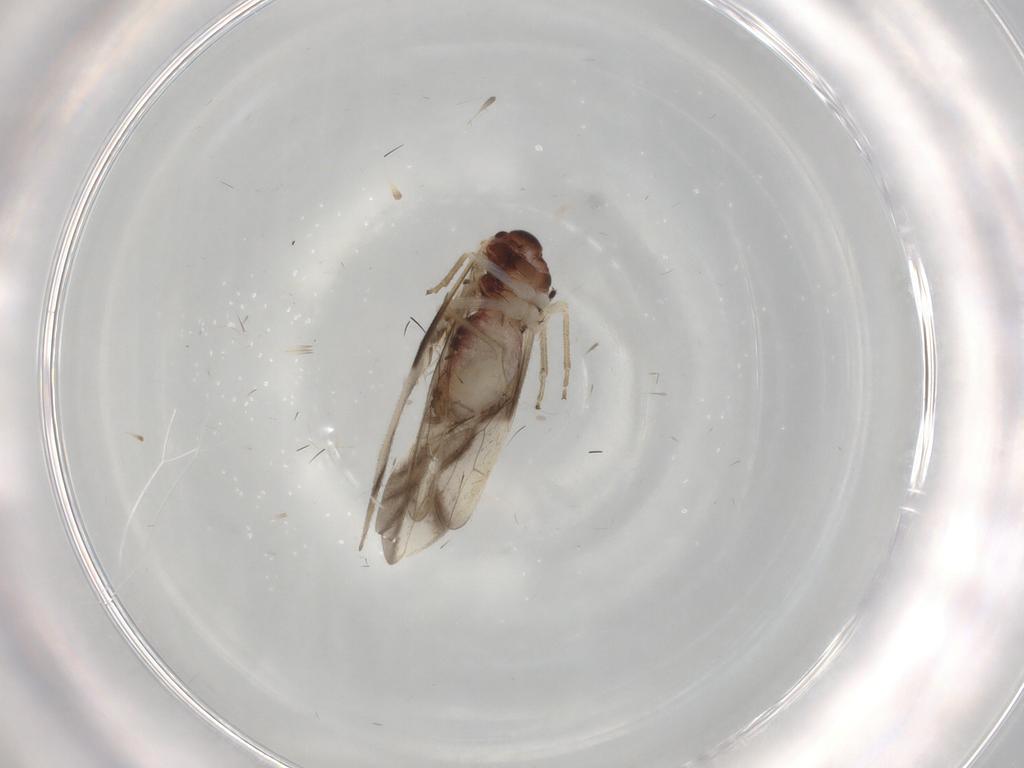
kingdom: Animalia
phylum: Arthropoda
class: Insecta
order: Psocodea
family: Caeciliusidae
